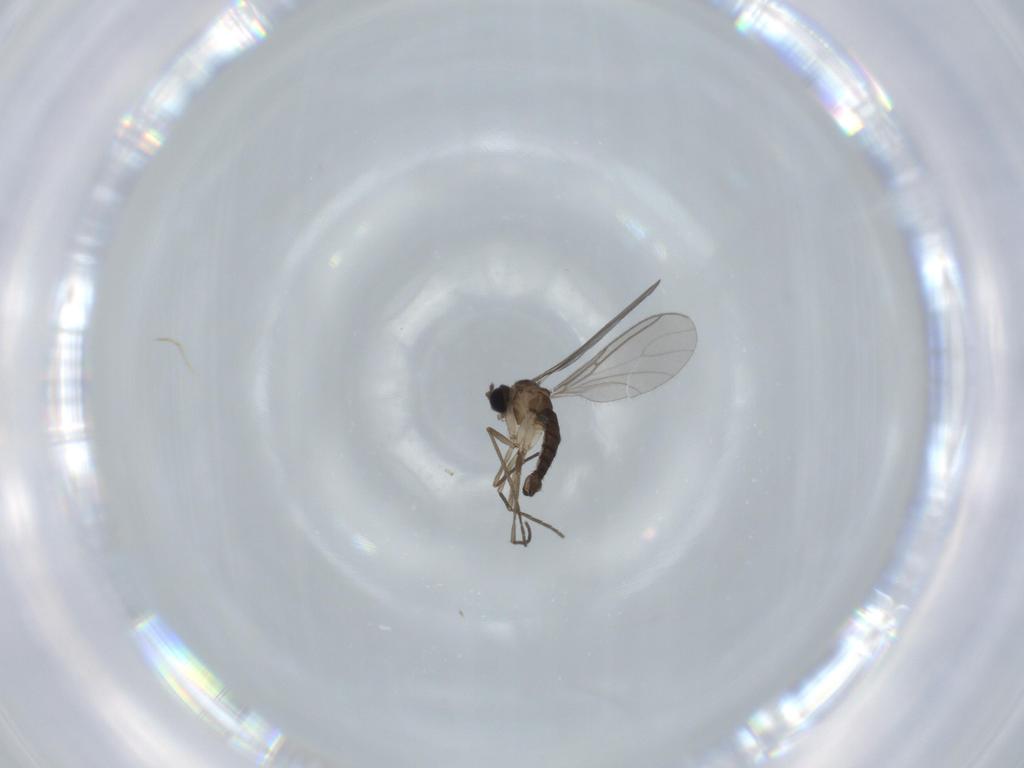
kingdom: Animalia
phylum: Arthropoda
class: Insecta
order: Diptera
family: Sciaridae
